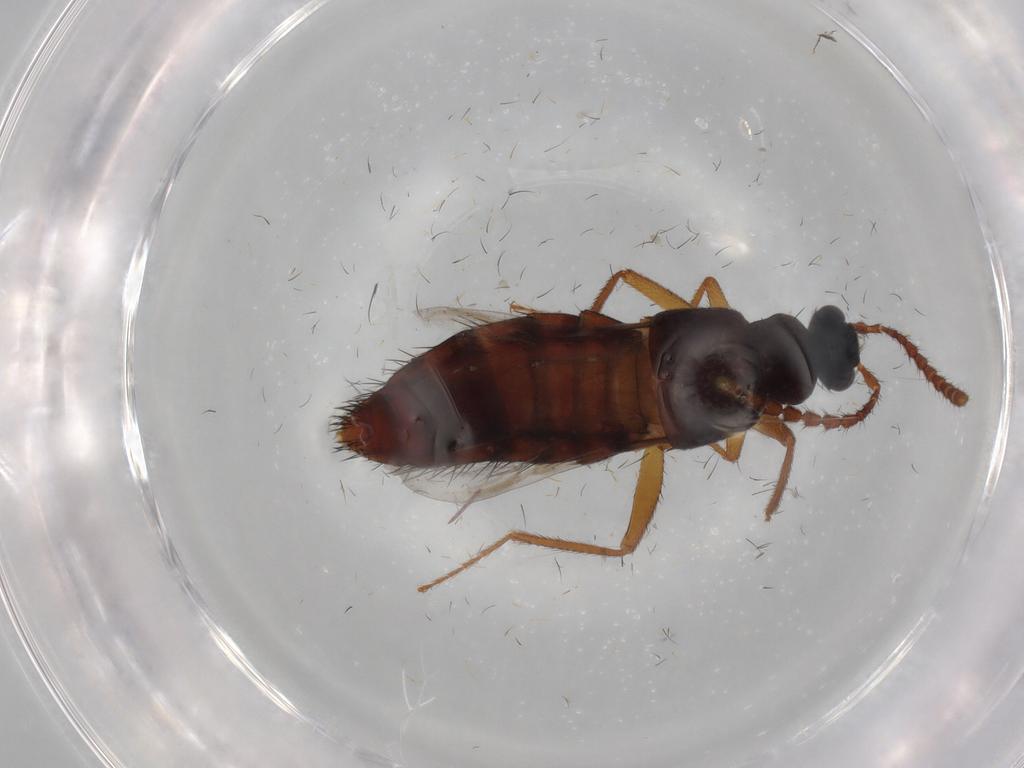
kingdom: Animalia
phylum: Arthropoda
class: Insecta
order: Coleoptera
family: Staphylinidae
